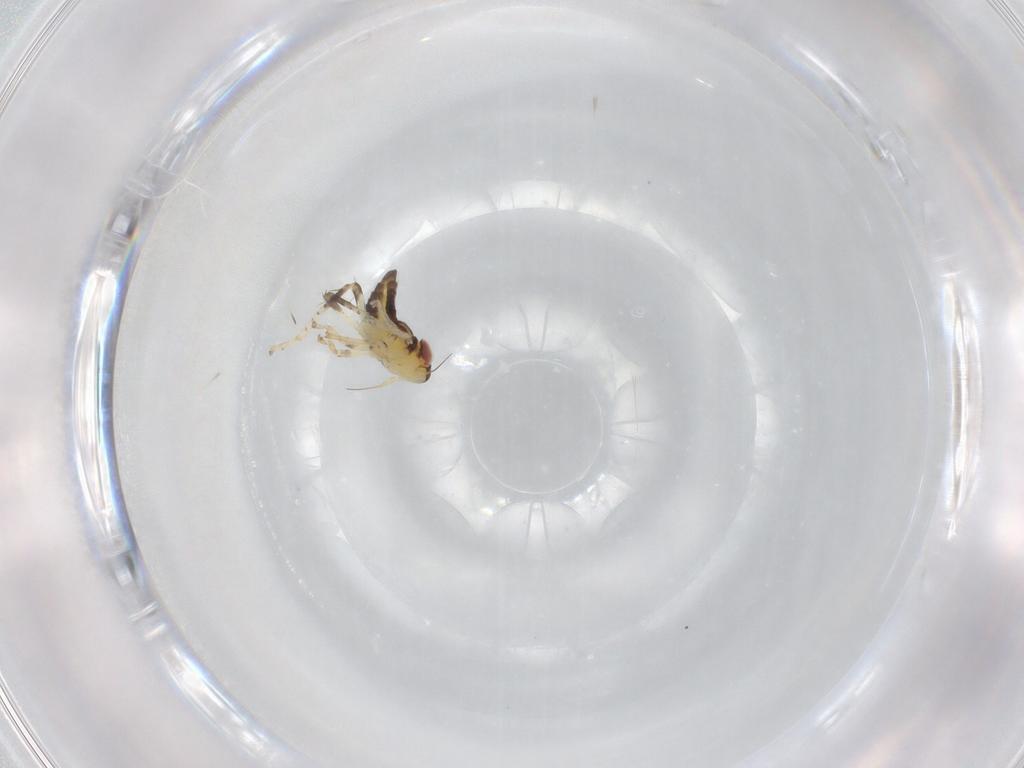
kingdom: Animalia
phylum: Arthropoda
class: Insecta
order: Hemiptera
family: Cicadellidae
